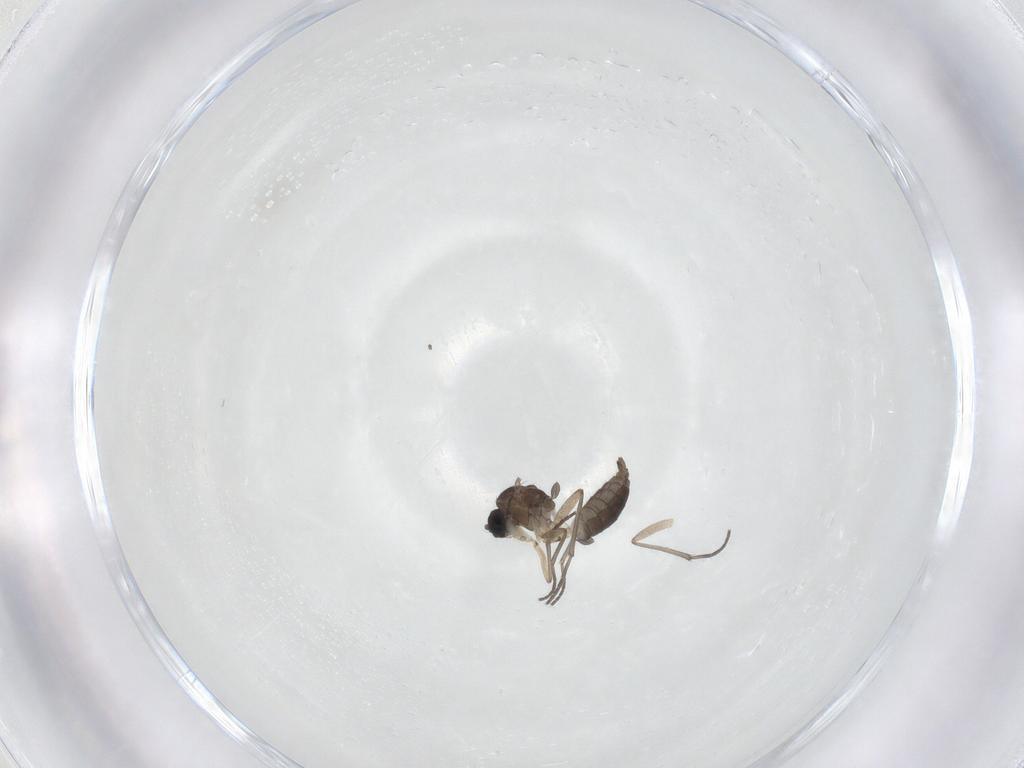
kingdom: Animalia
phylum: Arthropoda
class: Insecta
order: Diptera
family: Sciaridae
